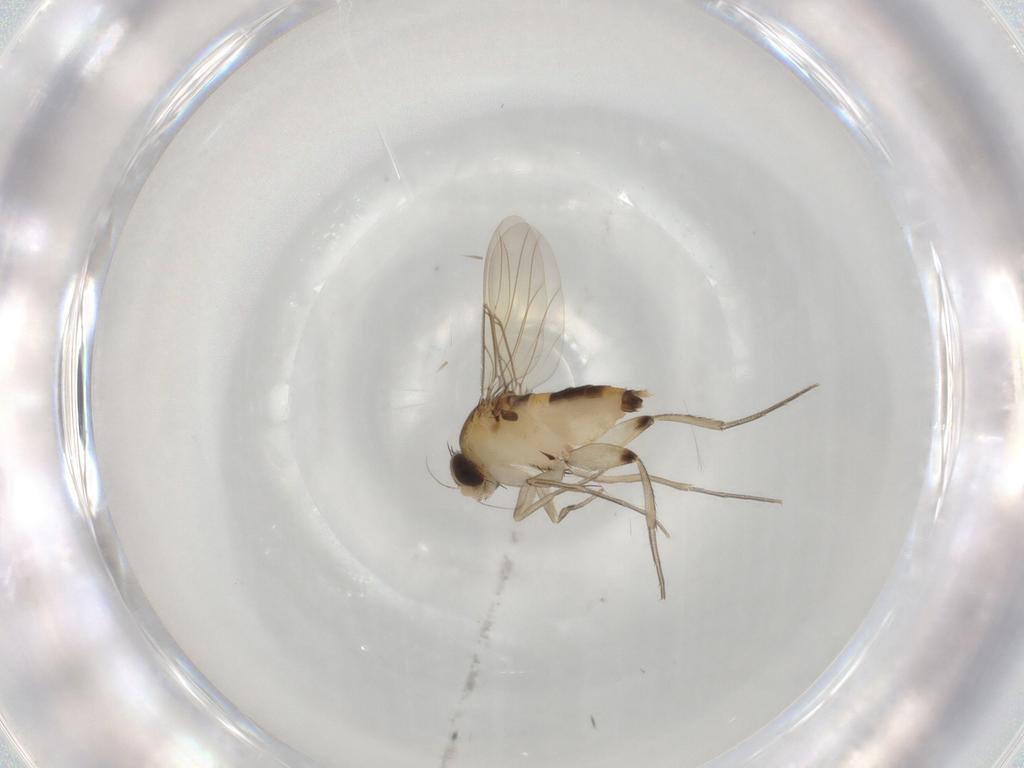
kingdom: Animalia
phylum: Arthropoda
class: Insecta
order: Diptera
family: Phoridae
